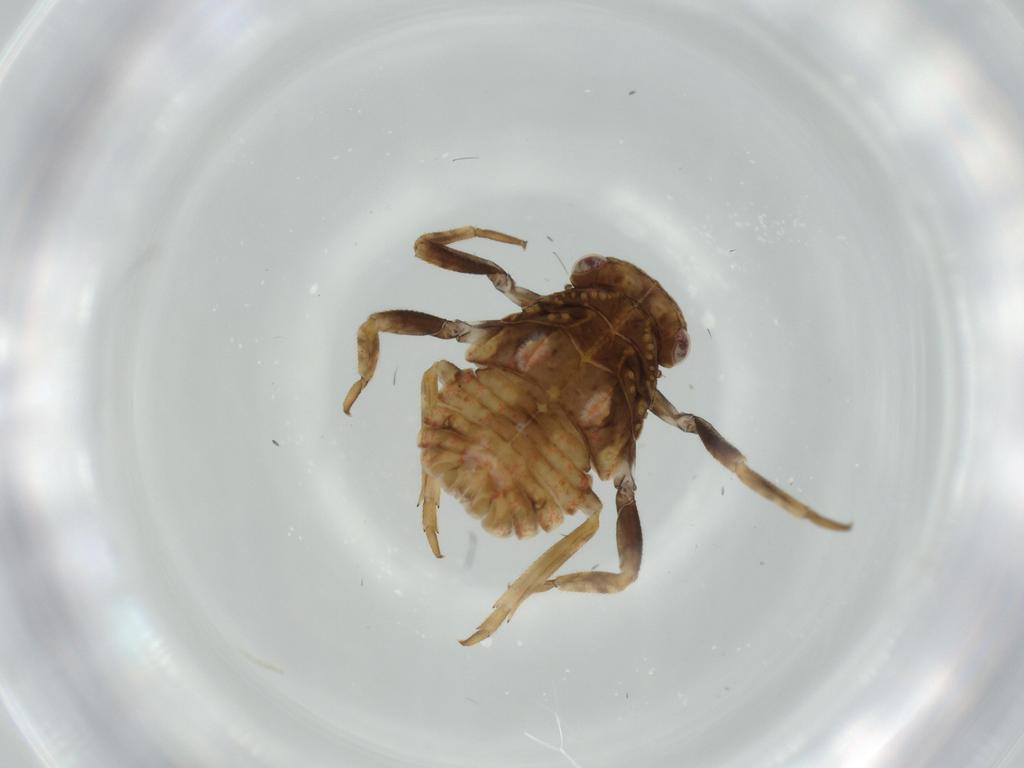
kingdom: Animalia
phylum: Arthropoda
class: Insecta
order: Hemiptera
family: Fulgoroidea_incertae_sedis
